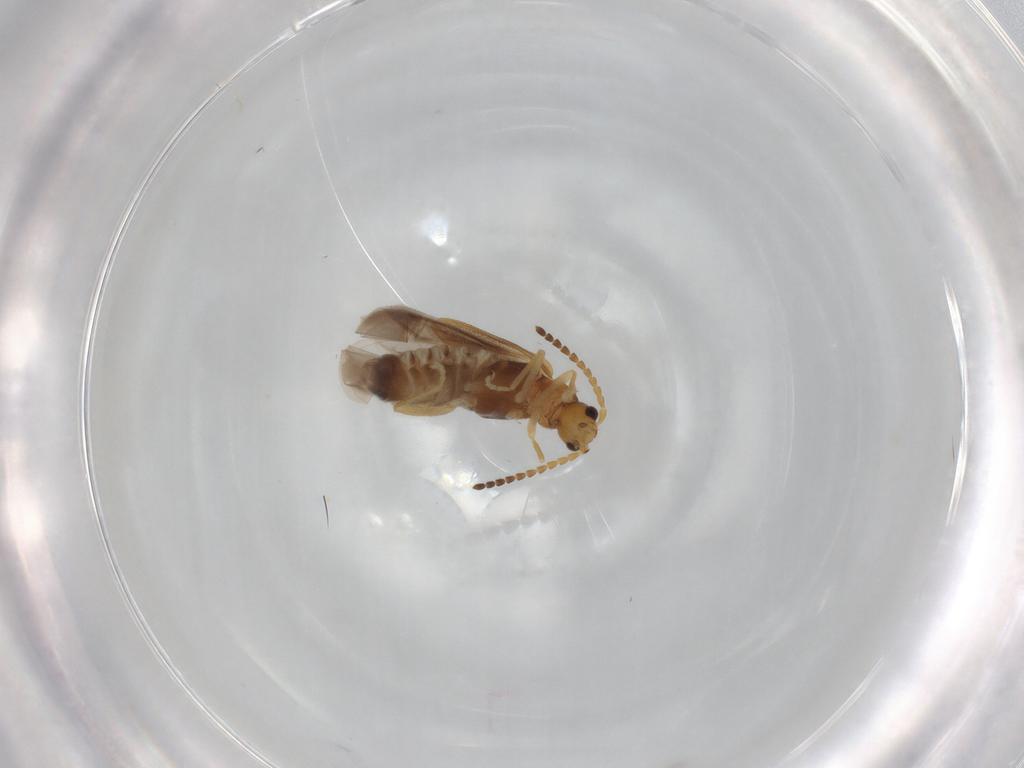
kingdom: Animalia
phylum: Arthropoda
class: Insecta
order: Coleoptera
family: Cantharidae
